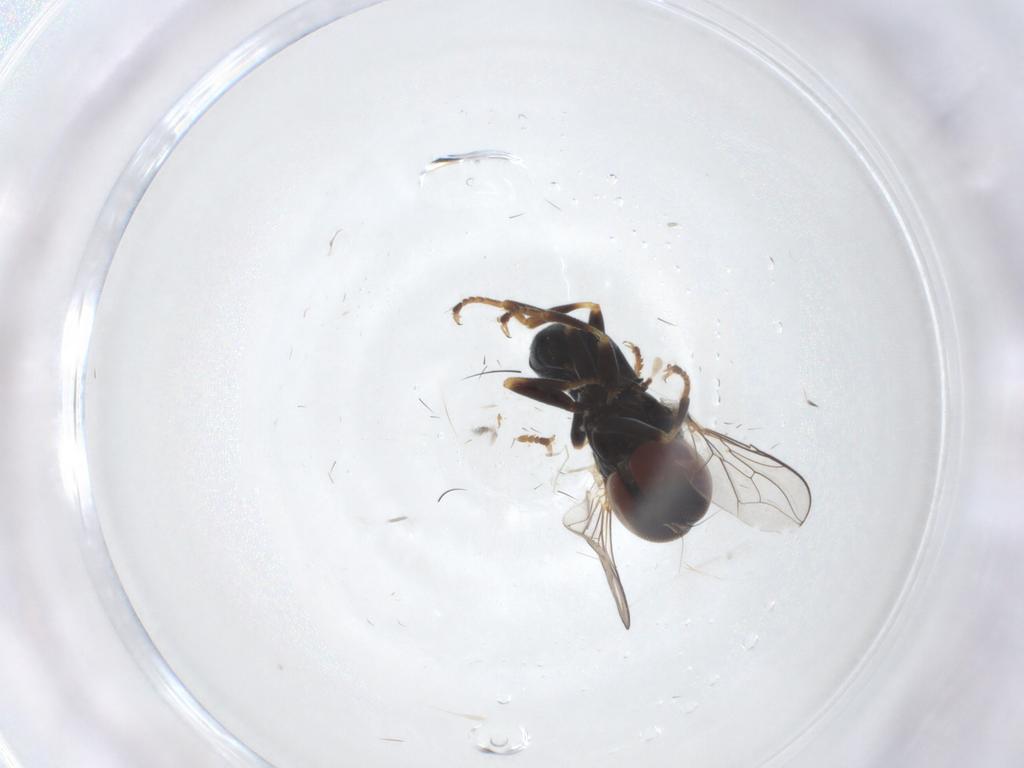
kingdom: Animalia
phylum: Arthropoda
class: Insecta
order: Diptera
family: Pipunculidae
